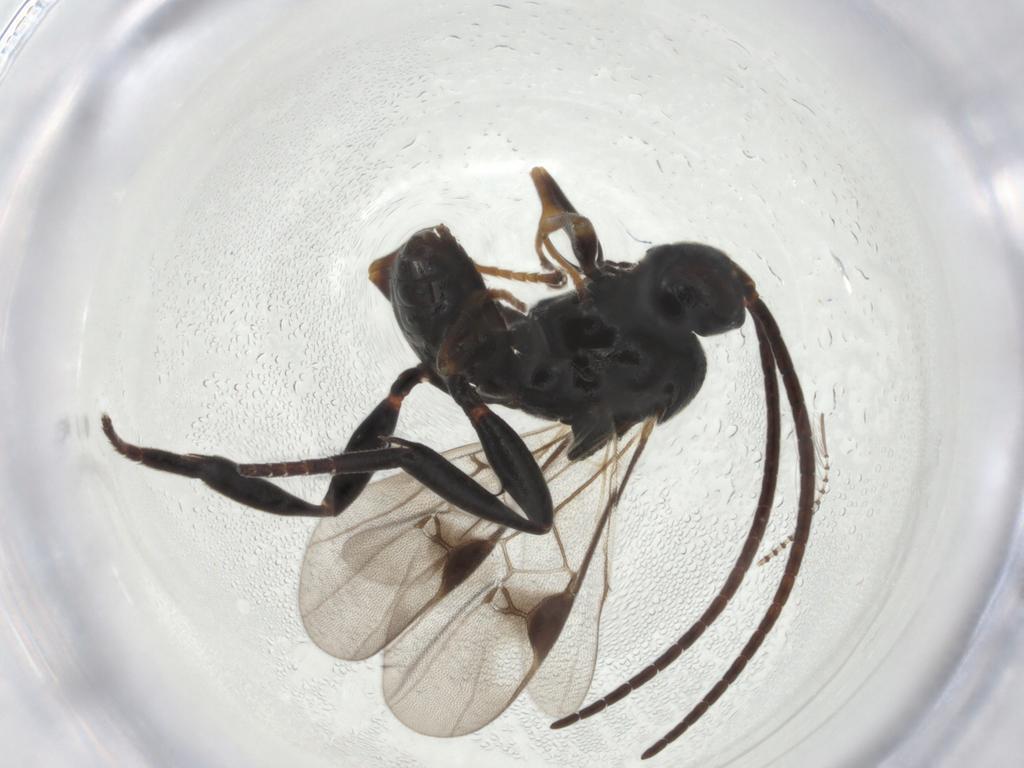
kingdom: Animalia
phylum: Arthropoda
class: Insecta
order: Hymenoptera
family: Braconidae
